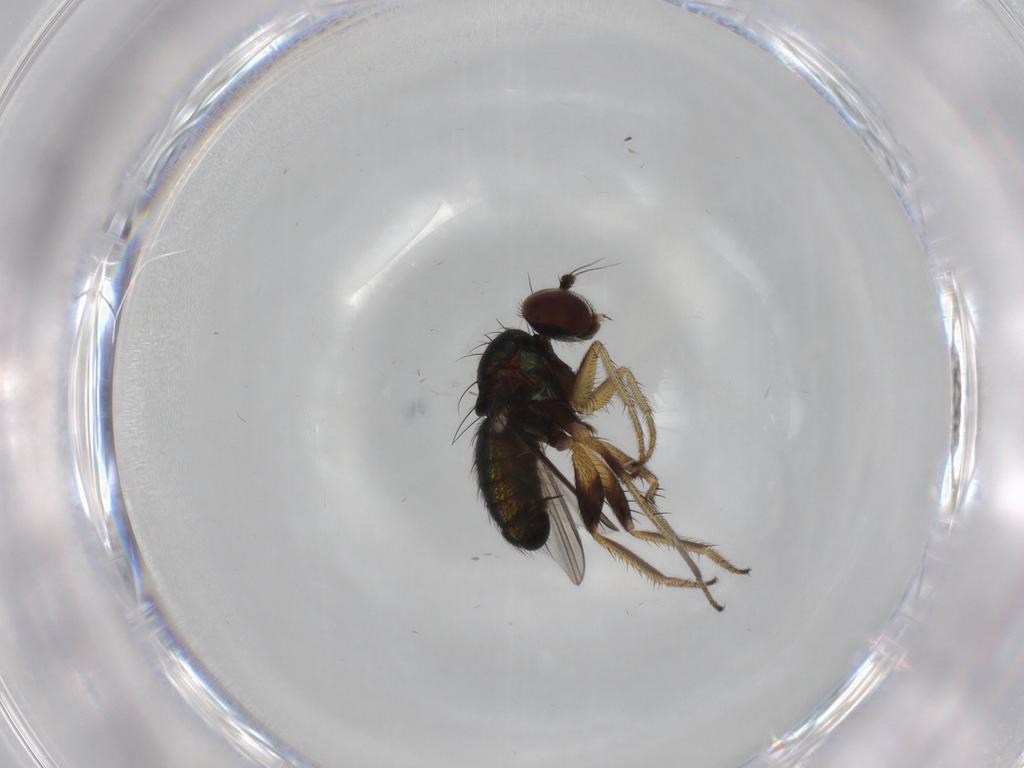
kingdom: Animalia
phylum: Arthropoda
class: Insecta
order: Diptera
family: Dolichopodidae
